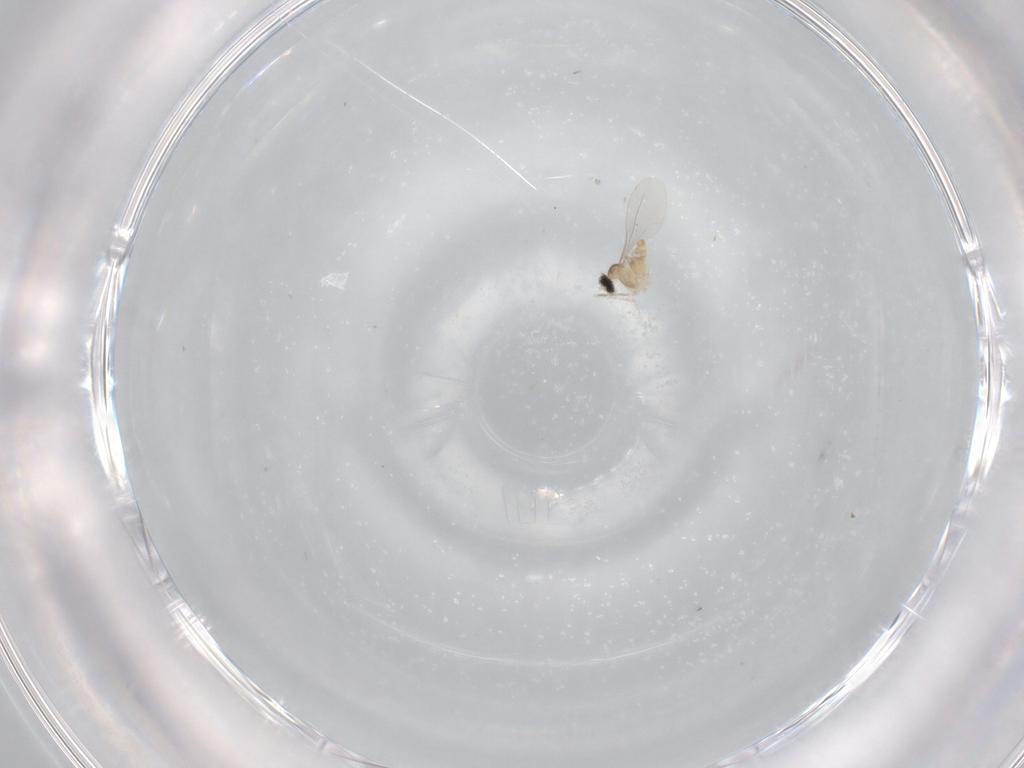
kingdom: Animalia
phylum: Arthropoda
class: Insecta
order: Diptera
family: Cecidomyiidae
